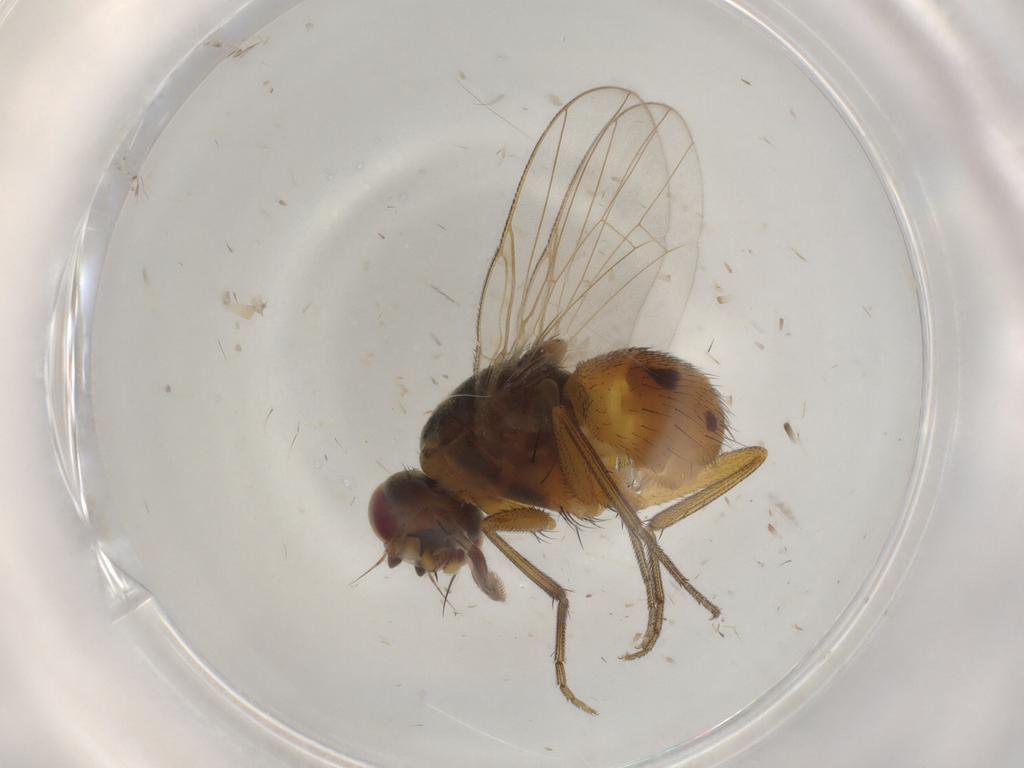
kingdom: Animalia
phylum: Arthropoda
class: Insecta
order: Diptera
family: Muscidae
